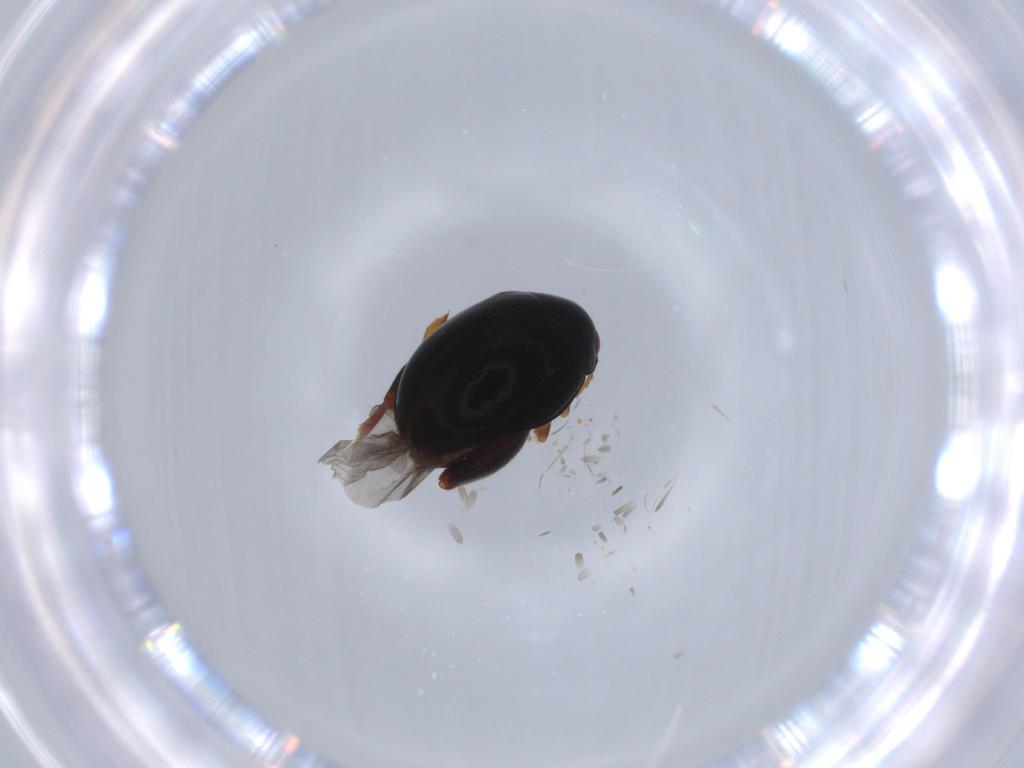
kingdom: Animalia
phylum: Arthropoda
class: Insecta
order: Coleoptera
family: Chrysomelidae
